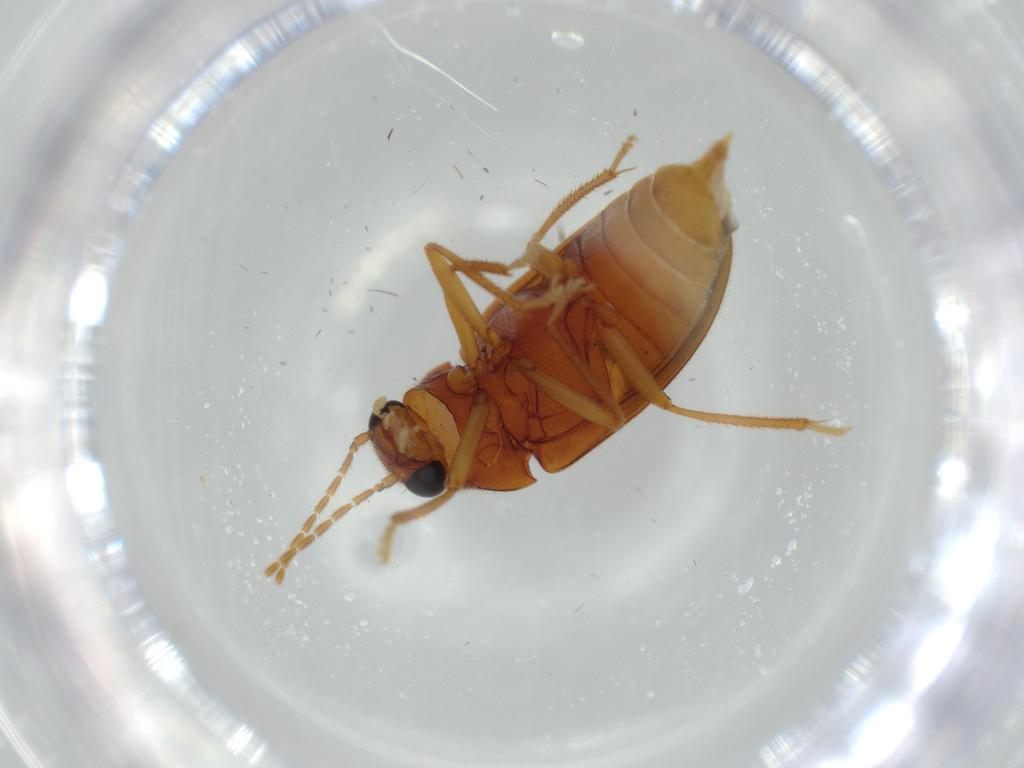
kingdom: Animalia
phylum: Arthropoda
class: Insecta
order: Coleoptera
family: Ptilodactylidae
